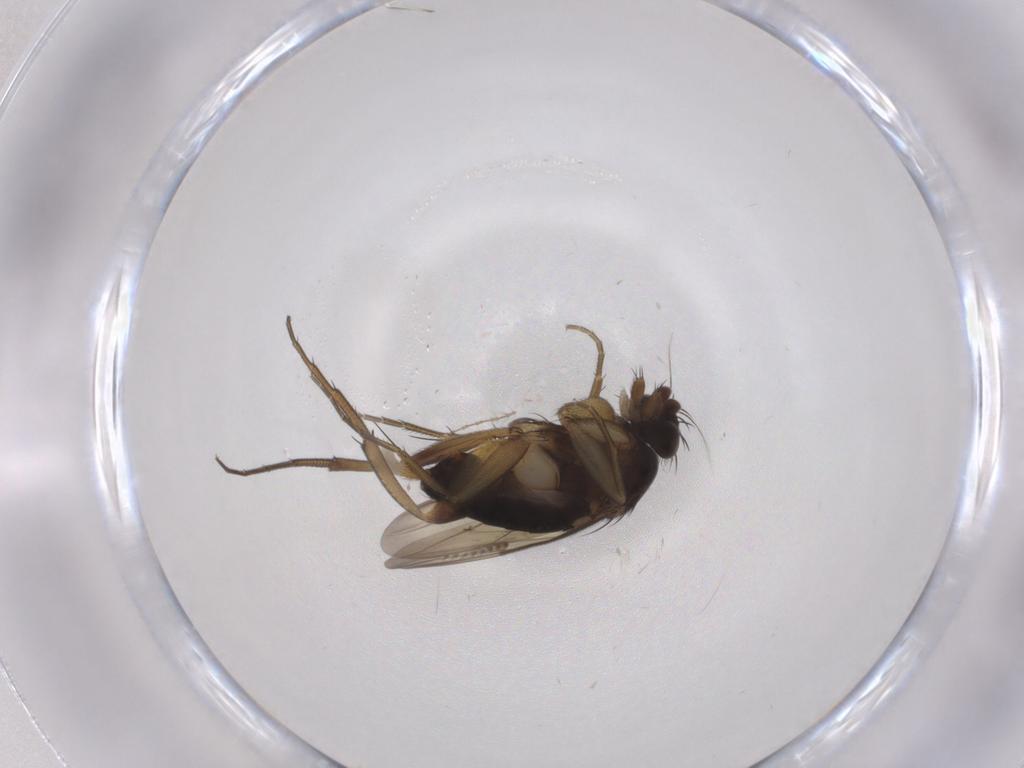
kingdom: Animalia
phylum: Arthropoda
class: Insecta
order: Diptera
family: Phoridae
